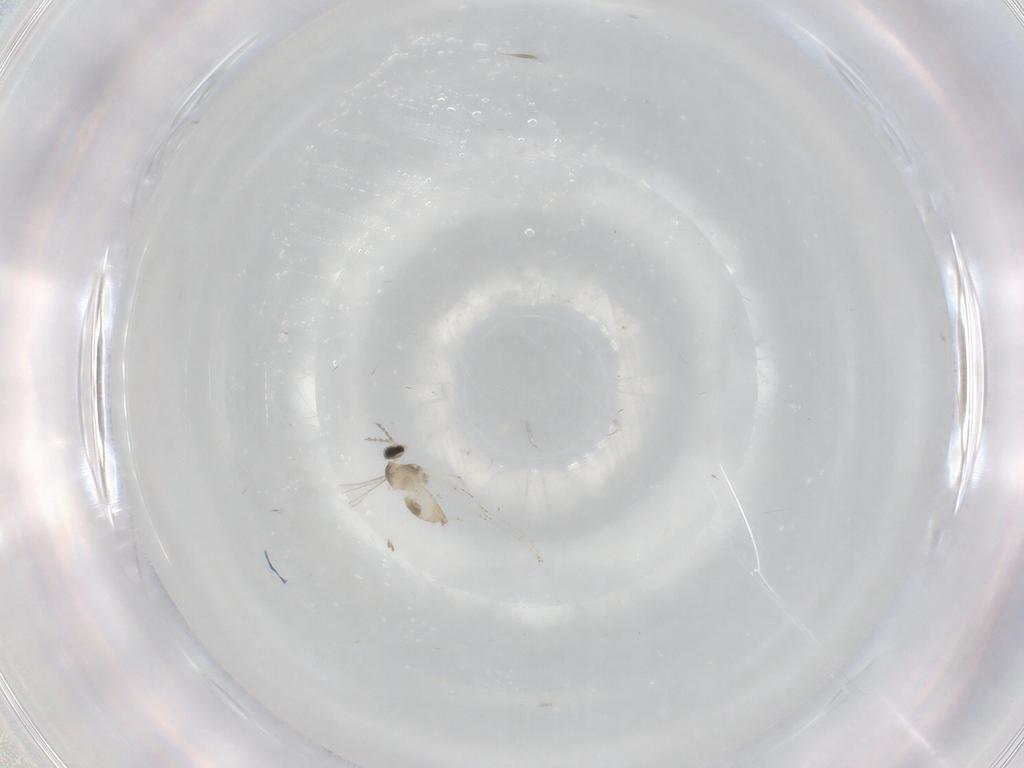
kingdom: Animalia
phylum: Arthropoda
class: Insecta
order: Diptera
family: Cecidomyiidae
